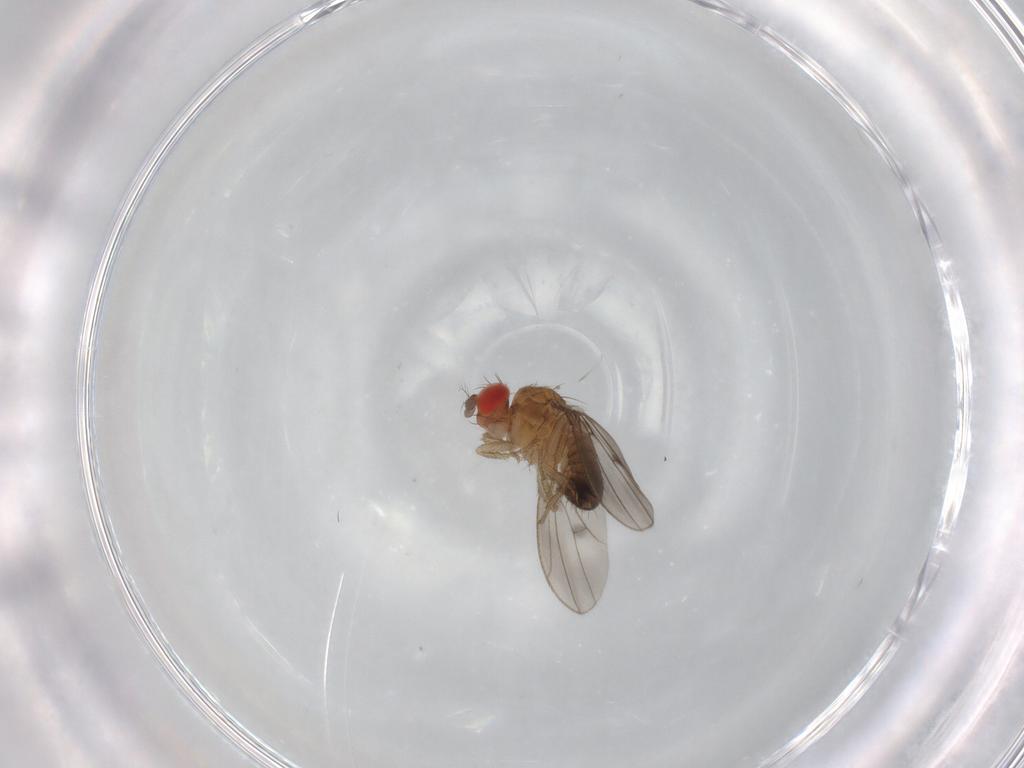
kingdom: Animalia
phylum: Arthropoda
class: Insecta
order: Diptera
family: Drosophilidae
